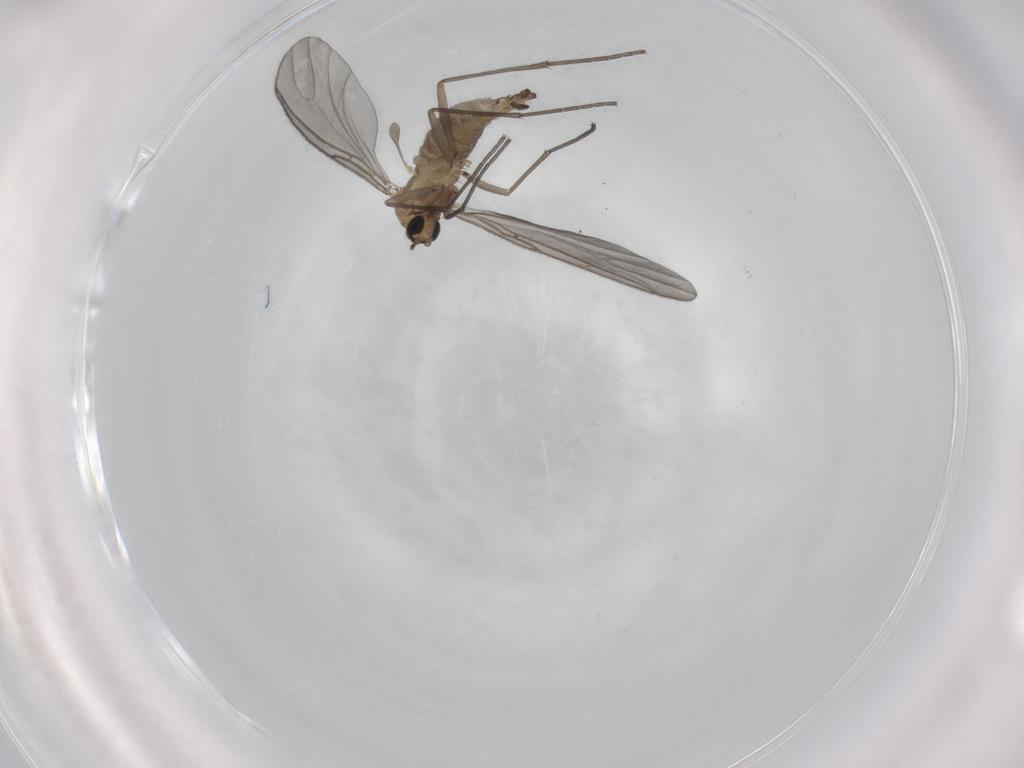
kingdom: Animalia
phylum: Arthropoda
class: Insecta
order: Diptera
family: Sciaridae
